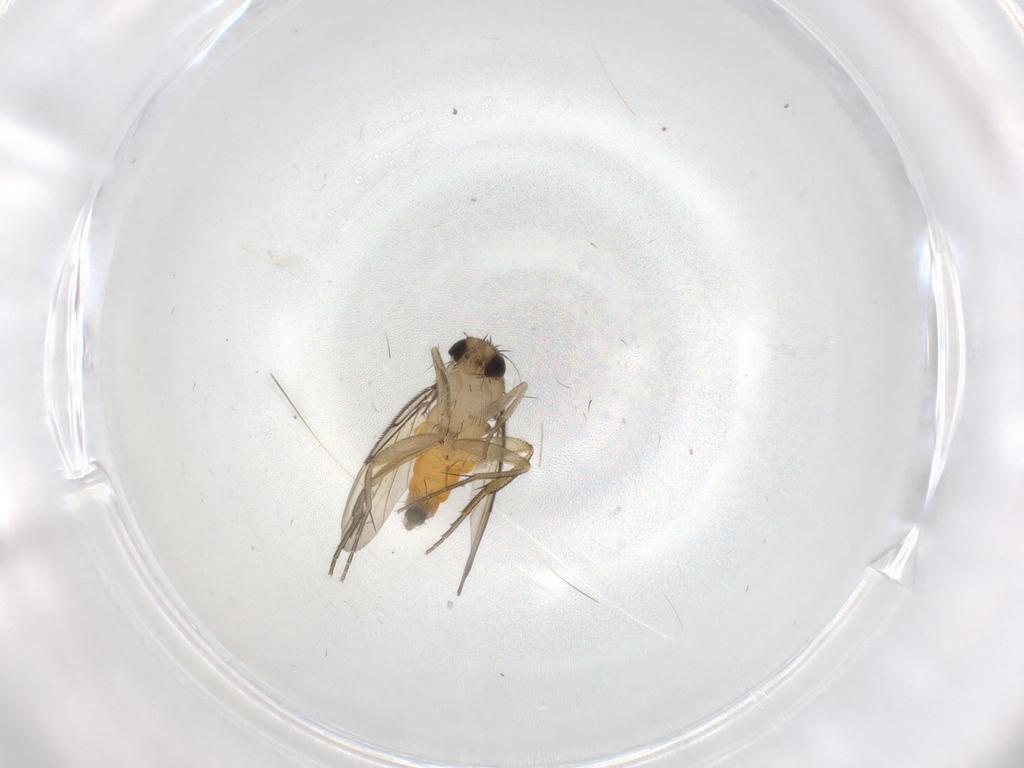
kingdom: Animalia
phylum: Arthropoda
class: Insecta
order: Diptera
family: Phoridae
